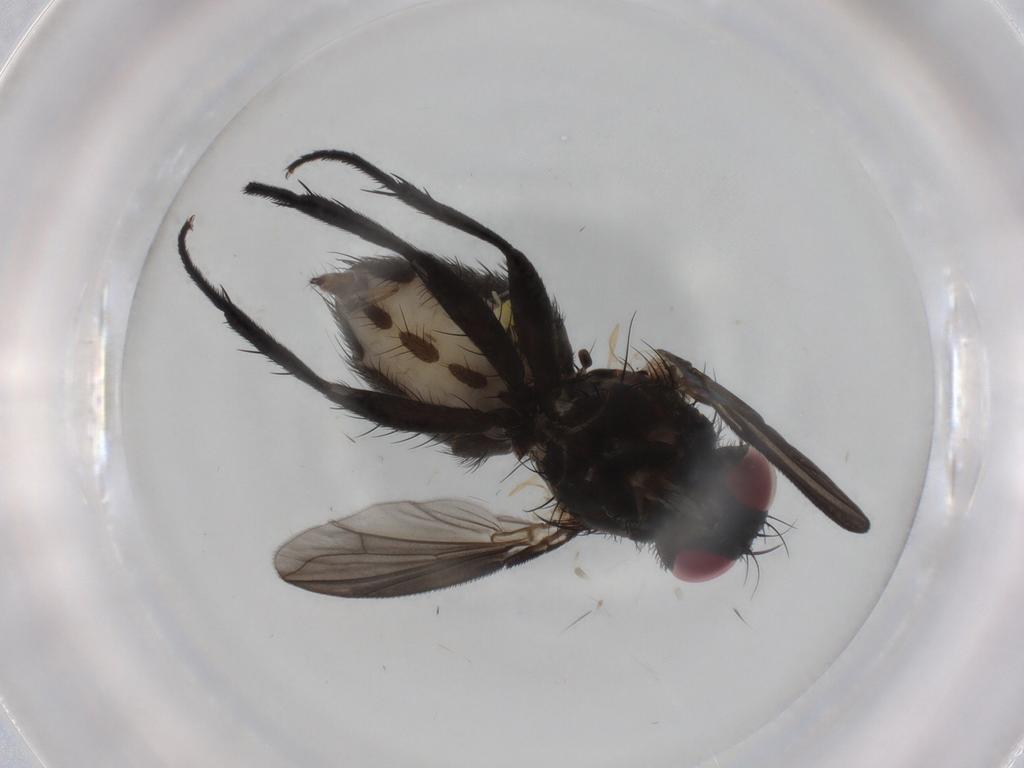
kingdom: Animalia
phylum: Arthropoda
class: Insecta
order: Diptera
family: Calliphoridae
